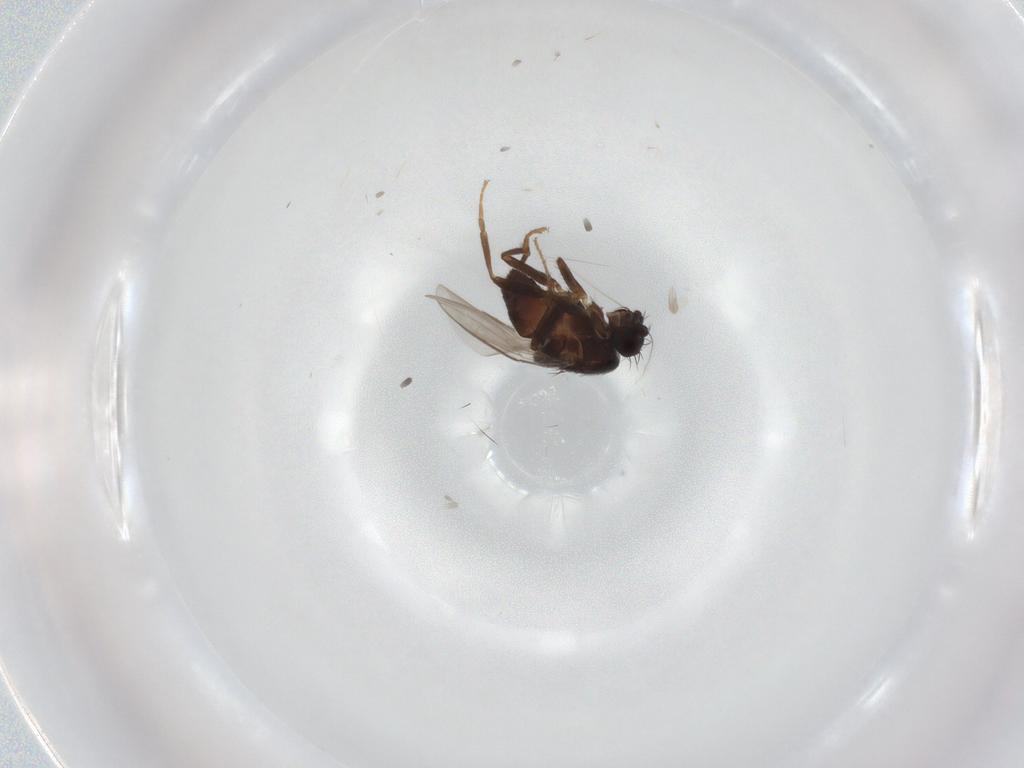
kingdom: Animalia
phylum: Arthropoda
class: Insecta
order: Diptera
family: Sphaeroceridae
